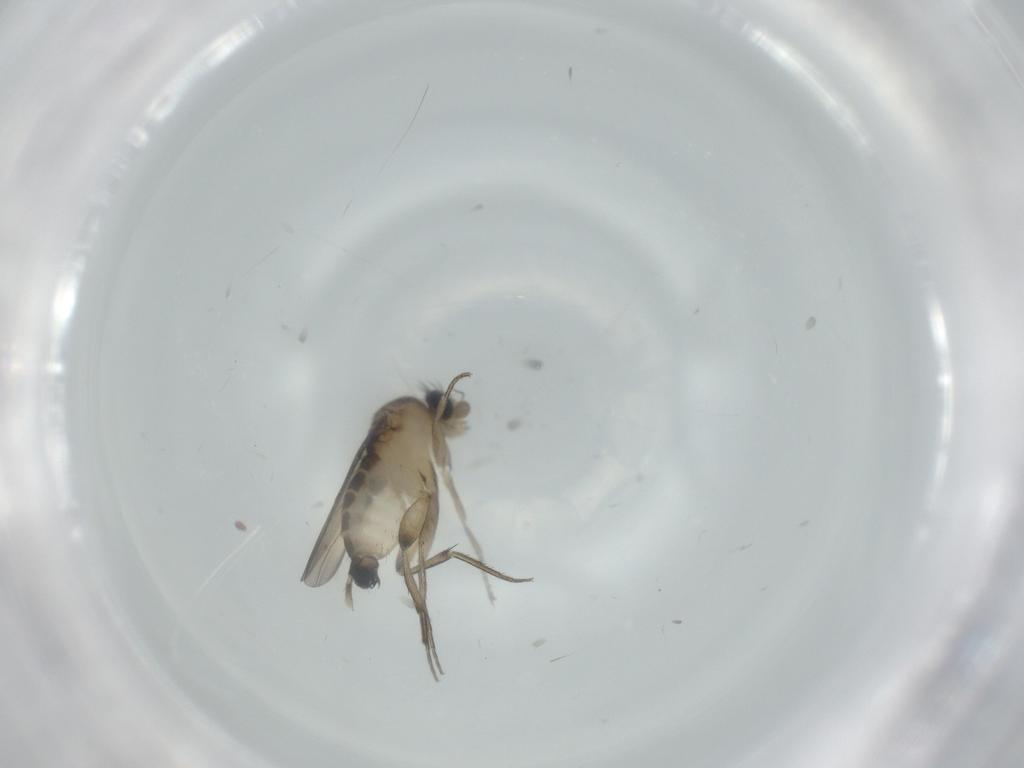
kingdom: Animalia
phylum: Arthropoda
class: Insecta
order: Diptera
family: Phoridae
